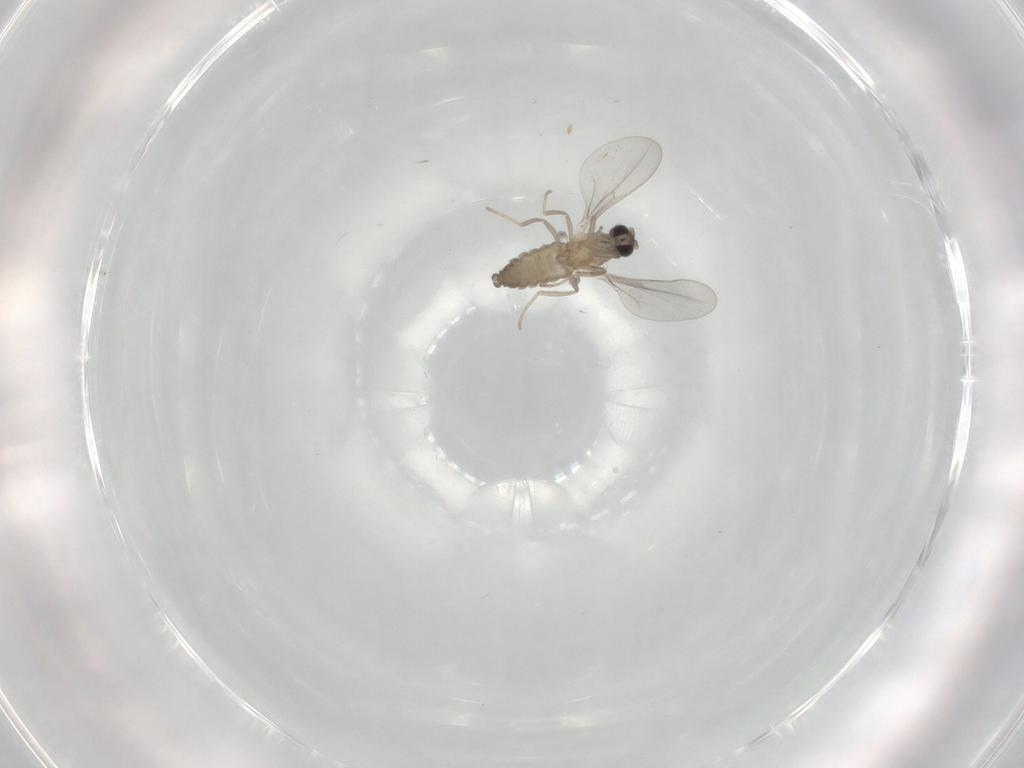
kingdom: Animalia
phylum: Arthropoda
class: Insecta
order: Diptera
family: Cecidomyiidae
